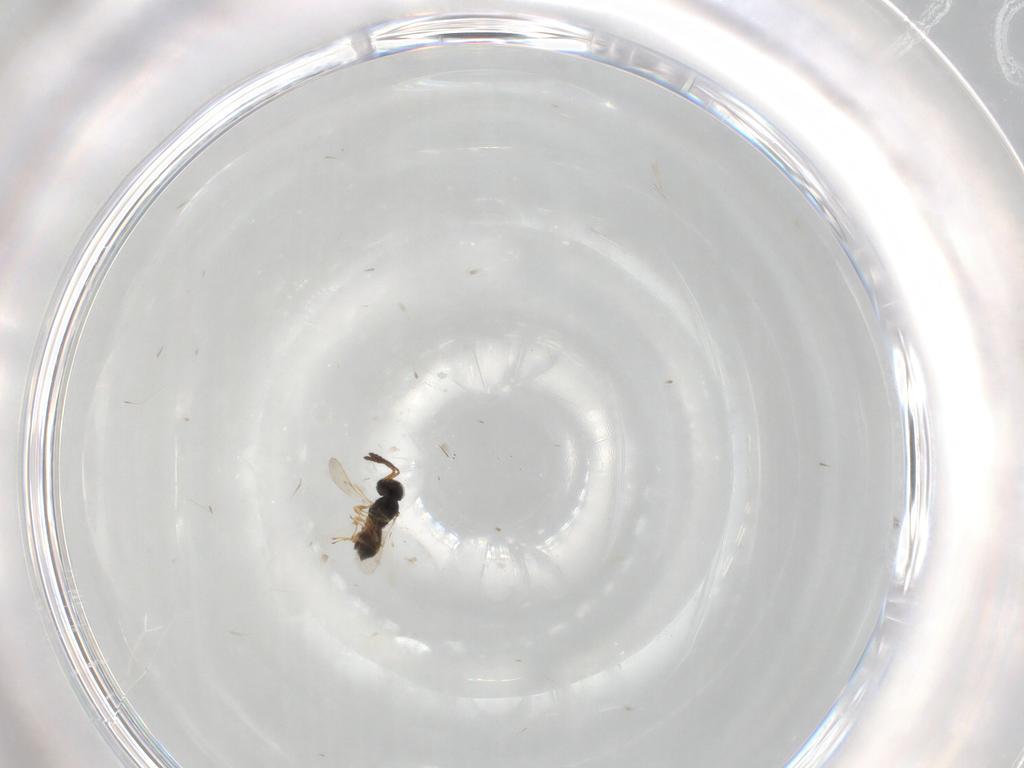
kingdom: Animalia
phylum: Arthropoda
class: Insecta
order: Hymenoptera
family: Scelionidae
